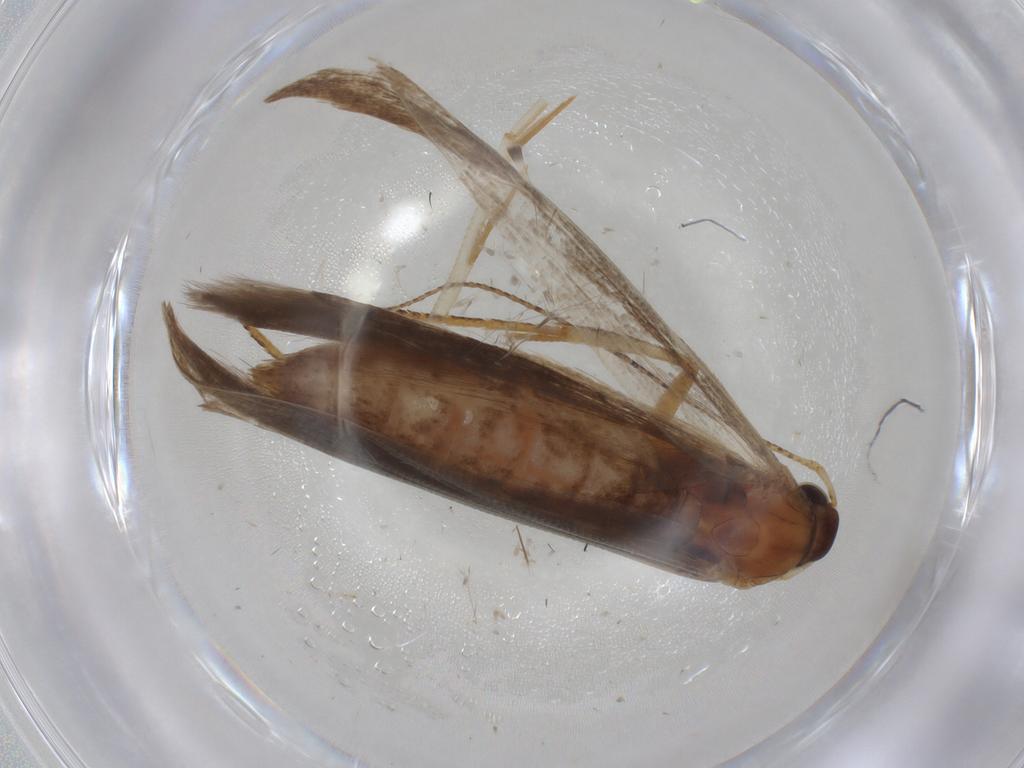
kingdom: Animalia
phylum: Arthropoda
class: Insecta
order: Lepidoptera
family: Gelechiidae
